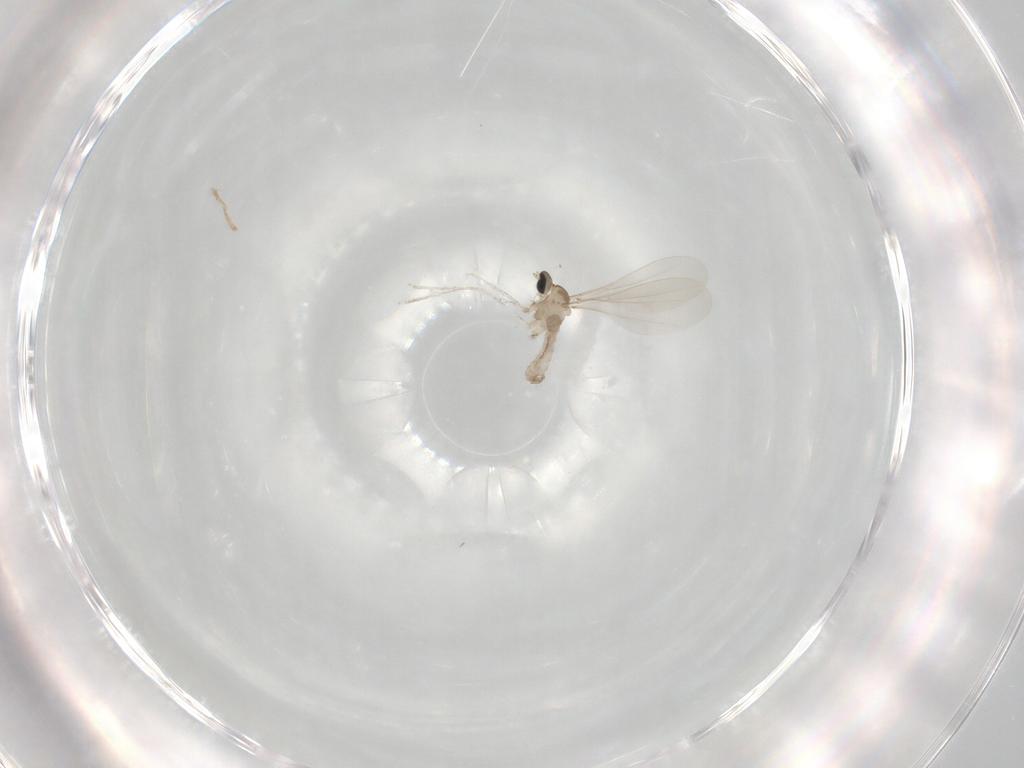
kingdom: Animalia
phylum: Arthropoda
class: Insecta
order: Diptera
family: Cecidomyiidae
